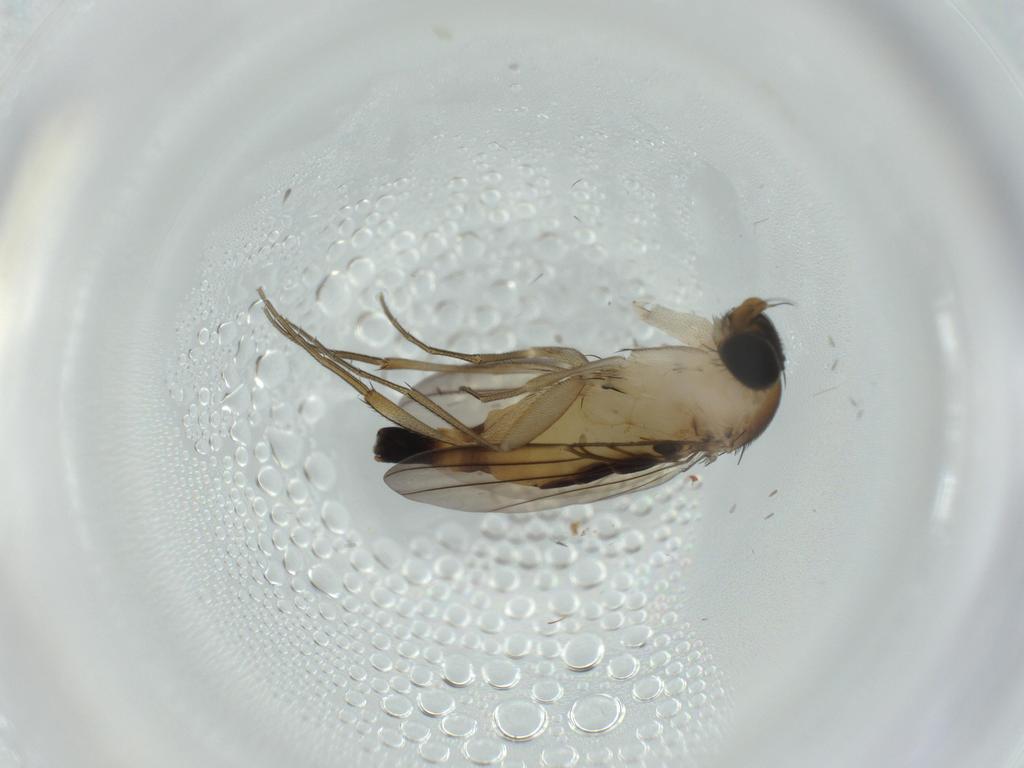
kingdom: Animalia
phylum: Arthropoda
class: Insecta
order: Diptera
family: Phoridae
